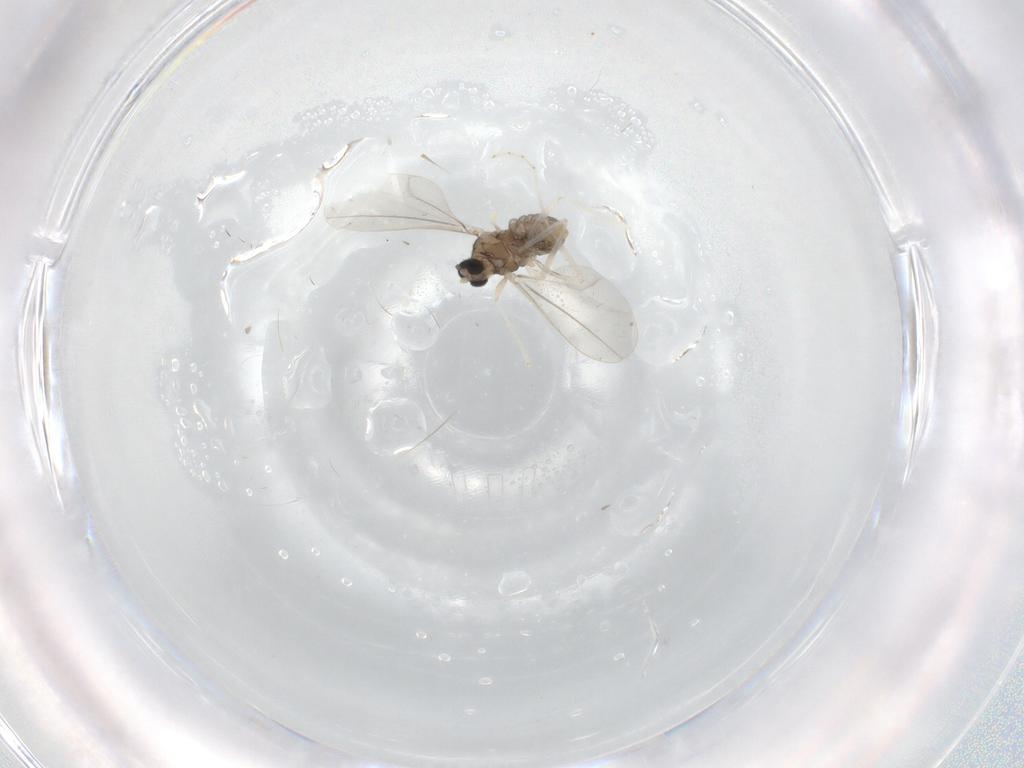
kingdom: Animalia
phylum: Arthropoda
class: Insecta
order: Diptera
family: Sciaridae
